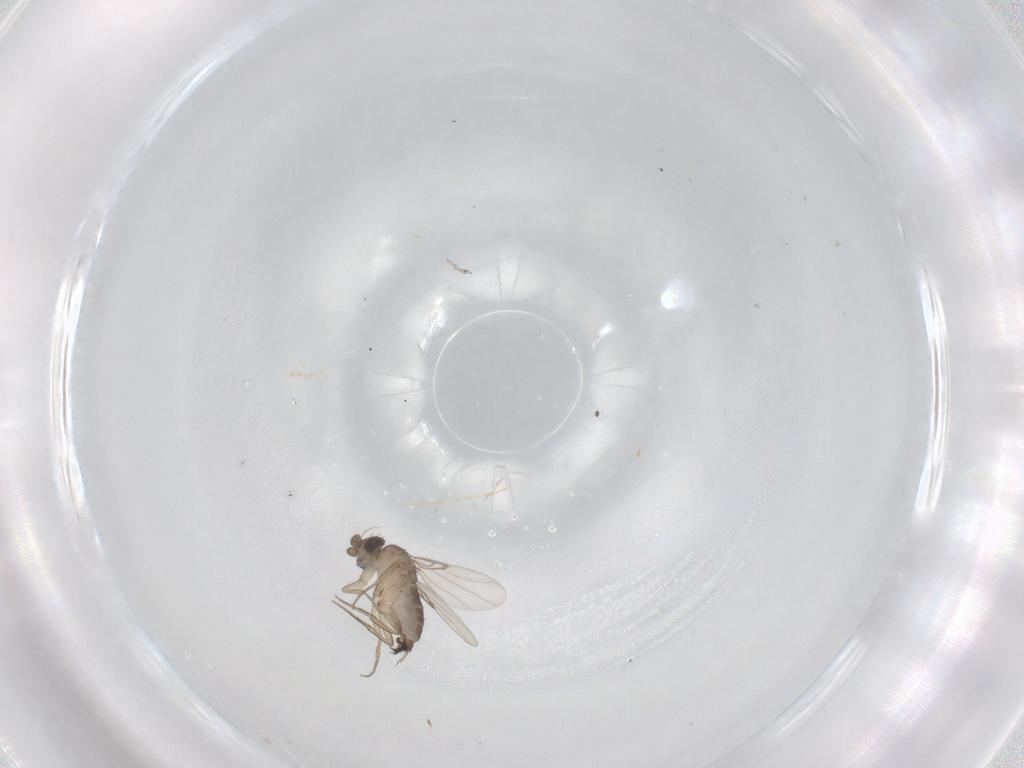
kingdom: Animalia
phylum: Arthropoda
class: Insecta
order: Diptera
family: Phoridae
